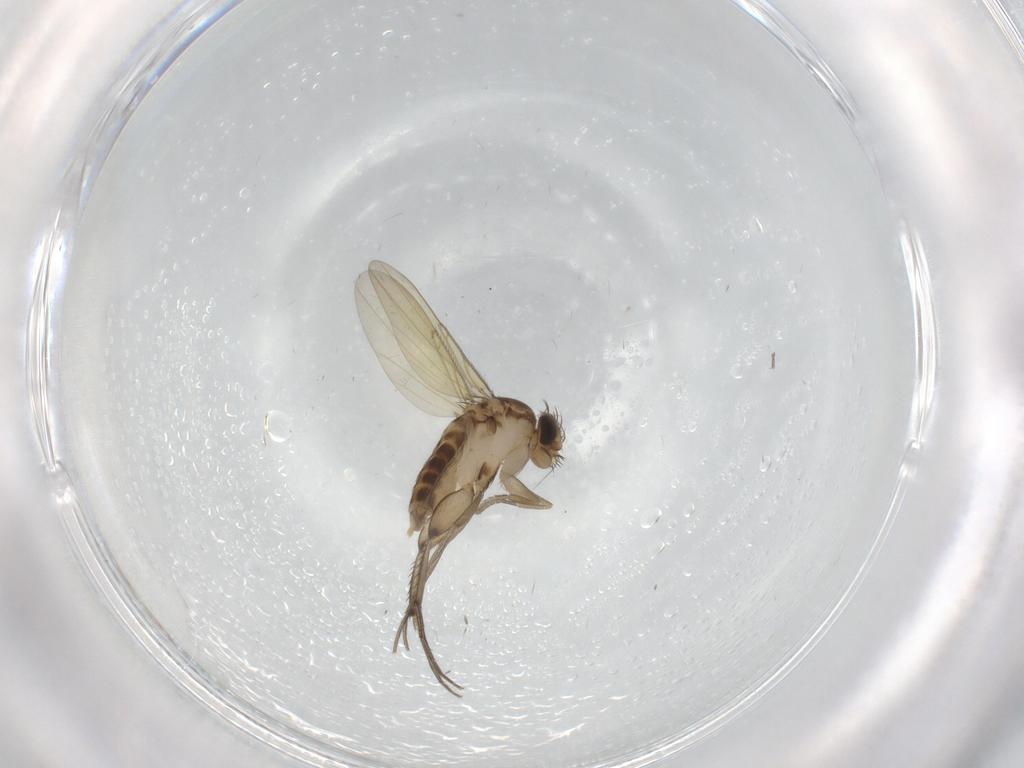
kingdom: Animalia
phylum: Arthropoda
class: Insecta
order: Diptera
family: Phoridae
